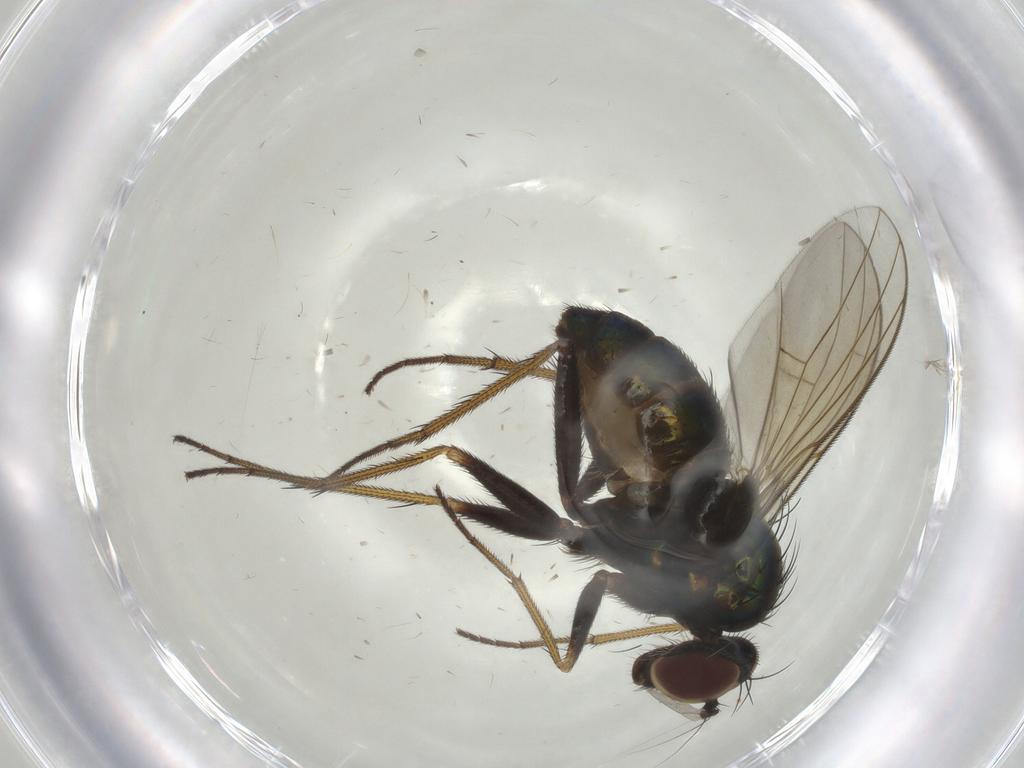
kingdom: Animalia
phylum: Arthropoda
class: Insecta
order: Diptera
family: Dolichopodidae
